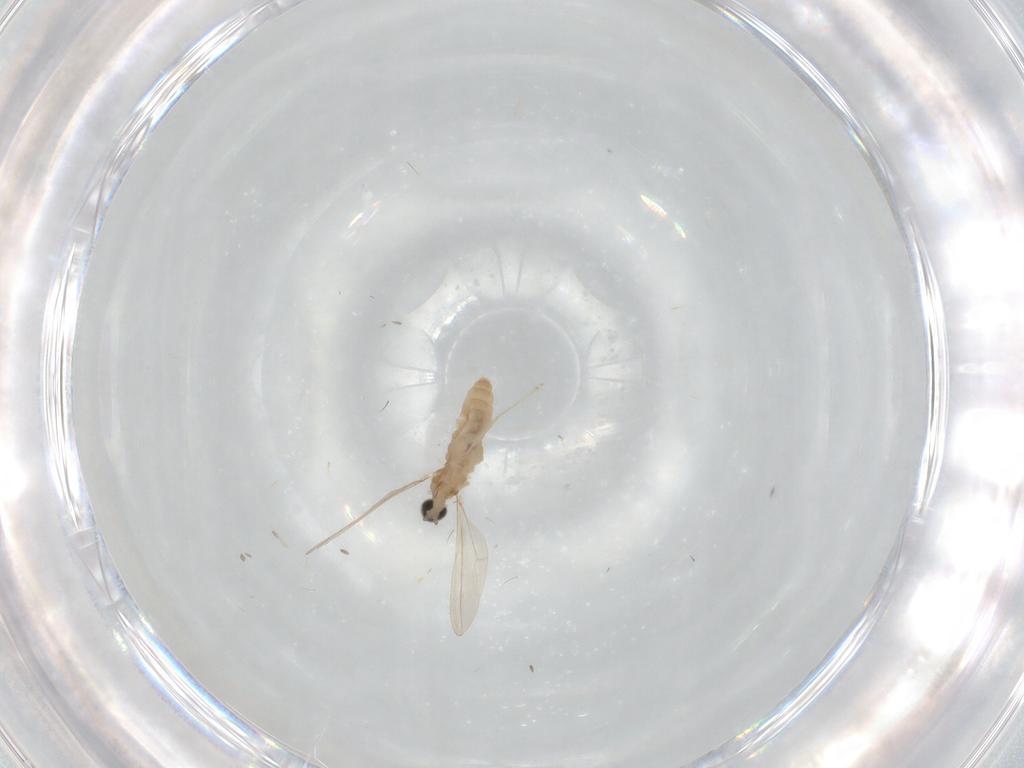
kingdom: Animalia
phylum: Arthropoda
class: Insecta
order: Diptera
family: Cecidomyiidae
